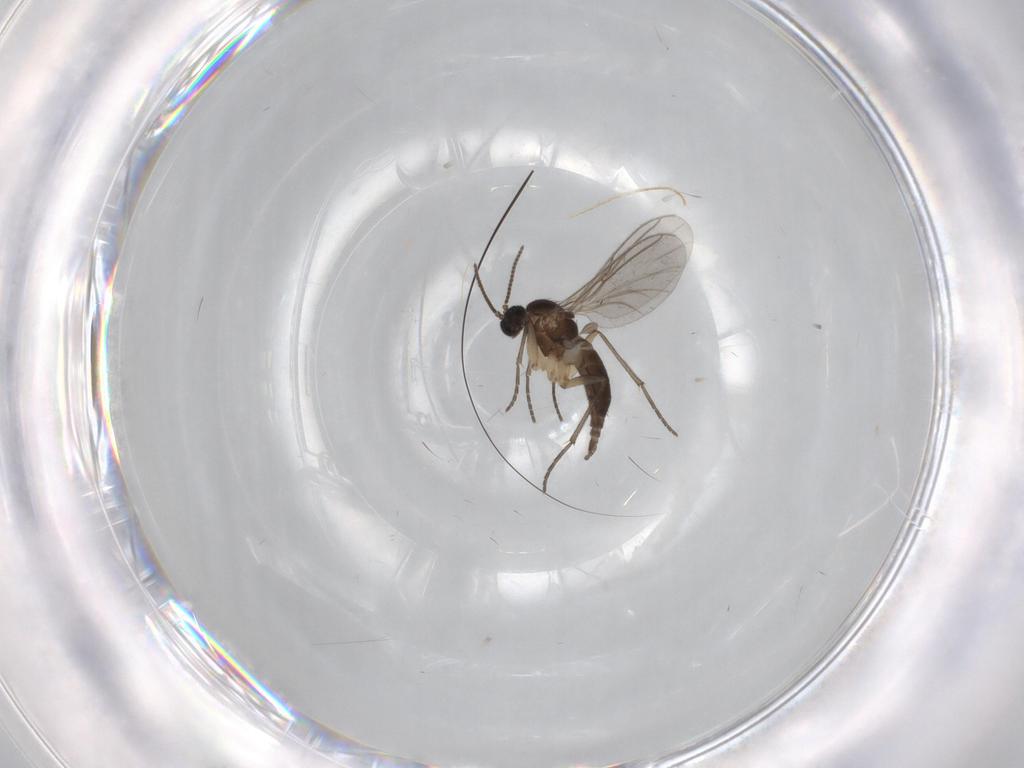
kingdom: Animalia
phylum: Arthropoda
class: Insecta
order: Diptera
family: Sciaridae
